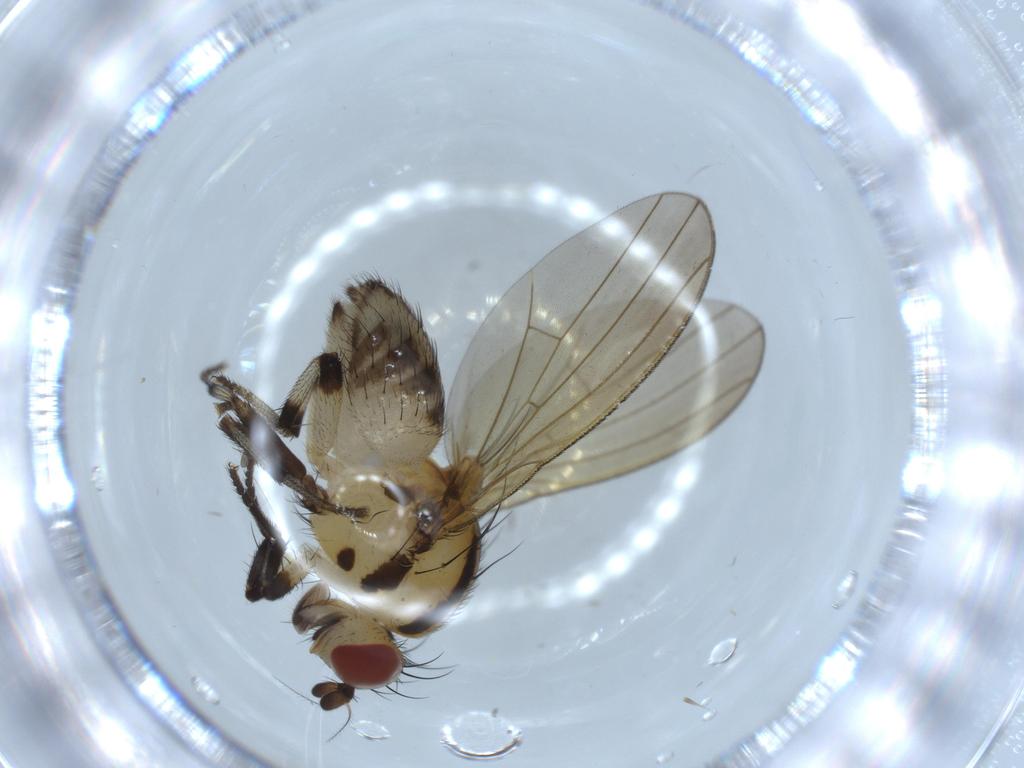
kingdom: Animalia
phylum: Arthropoda
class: Insecta
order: Diptera
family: Lauxaniidae
